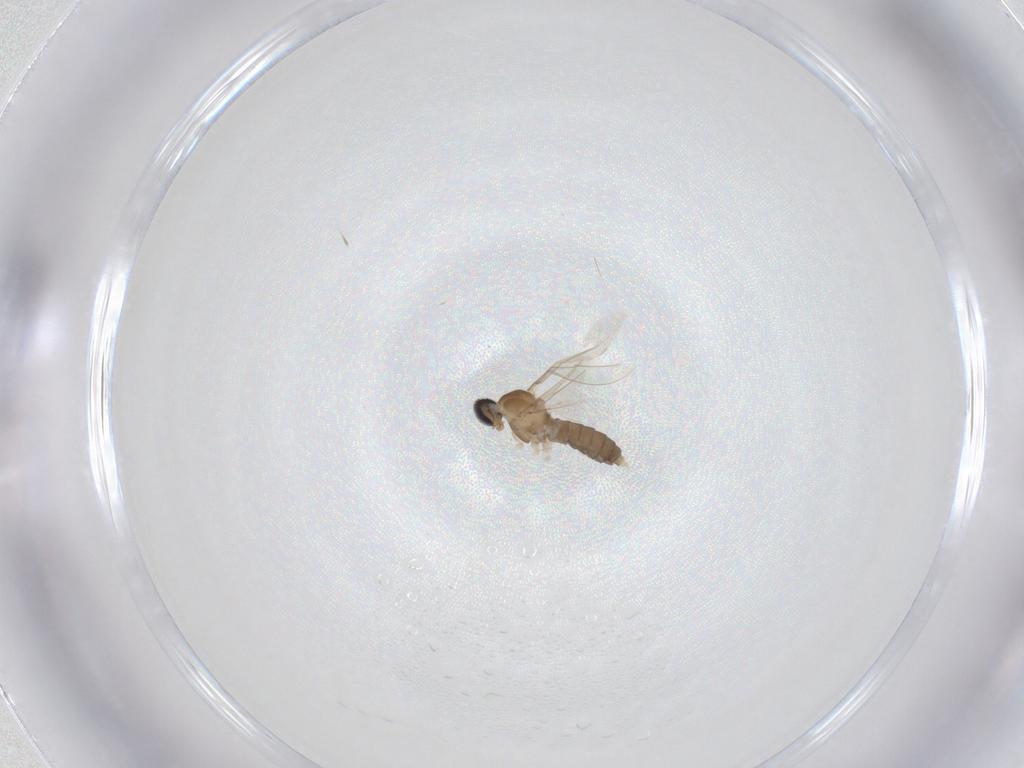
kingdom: Animalia
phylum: Arthropoda
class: Insecta
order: Diptera
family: Cecidomyiidae
